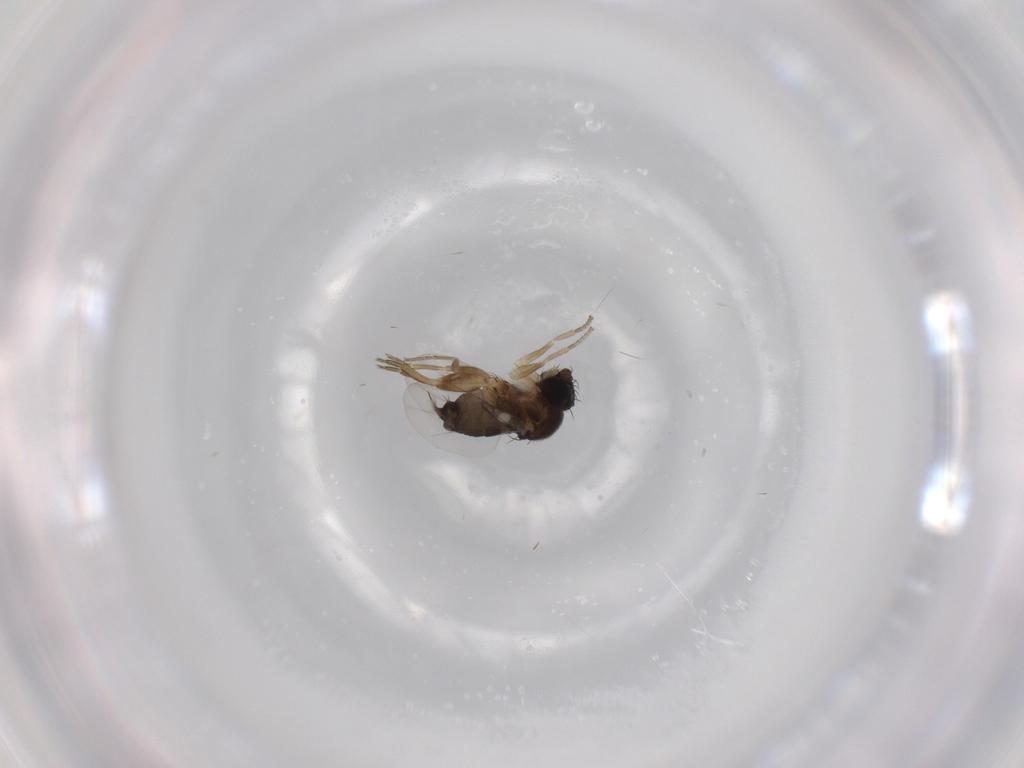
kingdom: Animalia
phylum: Arthropoda
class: Insecta
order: Diptera
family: Phoridae
